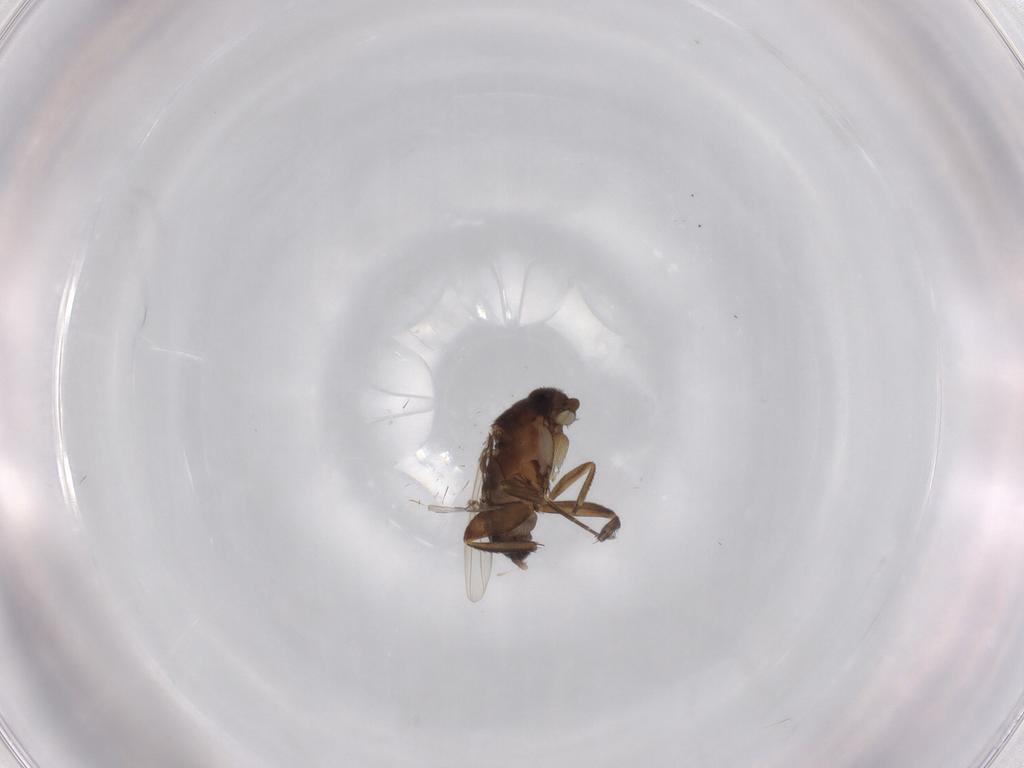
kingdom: Animalia
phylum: Arthropoda
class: Insecta
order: Diptera
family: Phoridae
